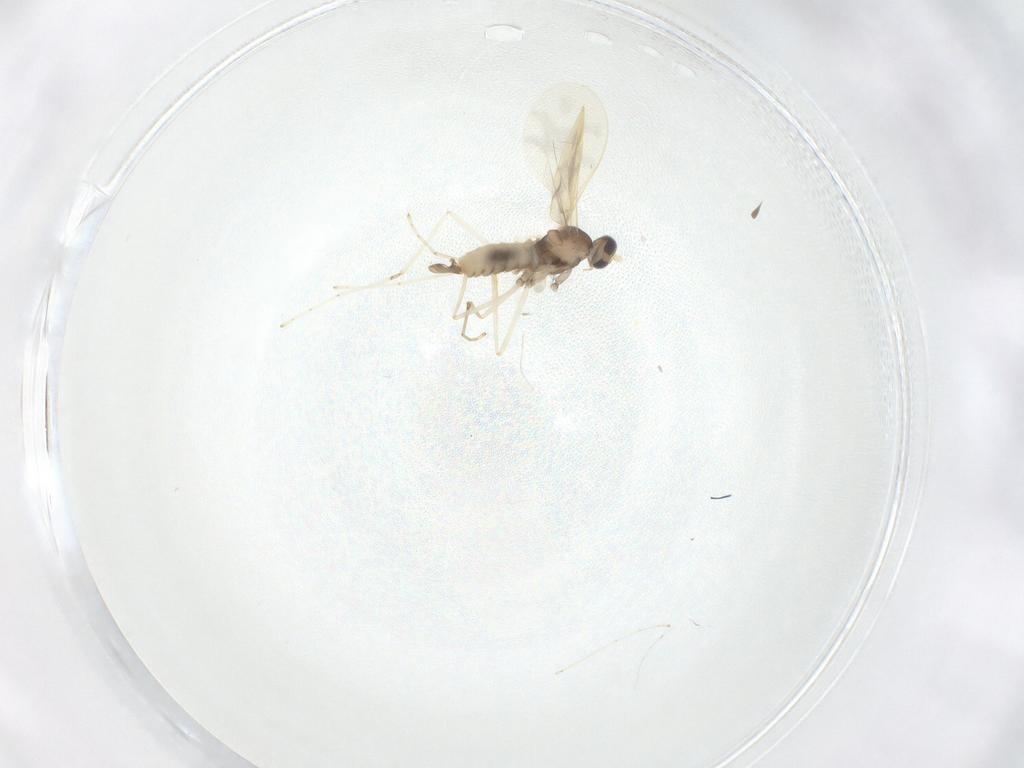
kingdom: Animalia
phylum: Arthropoda
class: Insecta
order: Diptera
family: Cecidomyiidae
